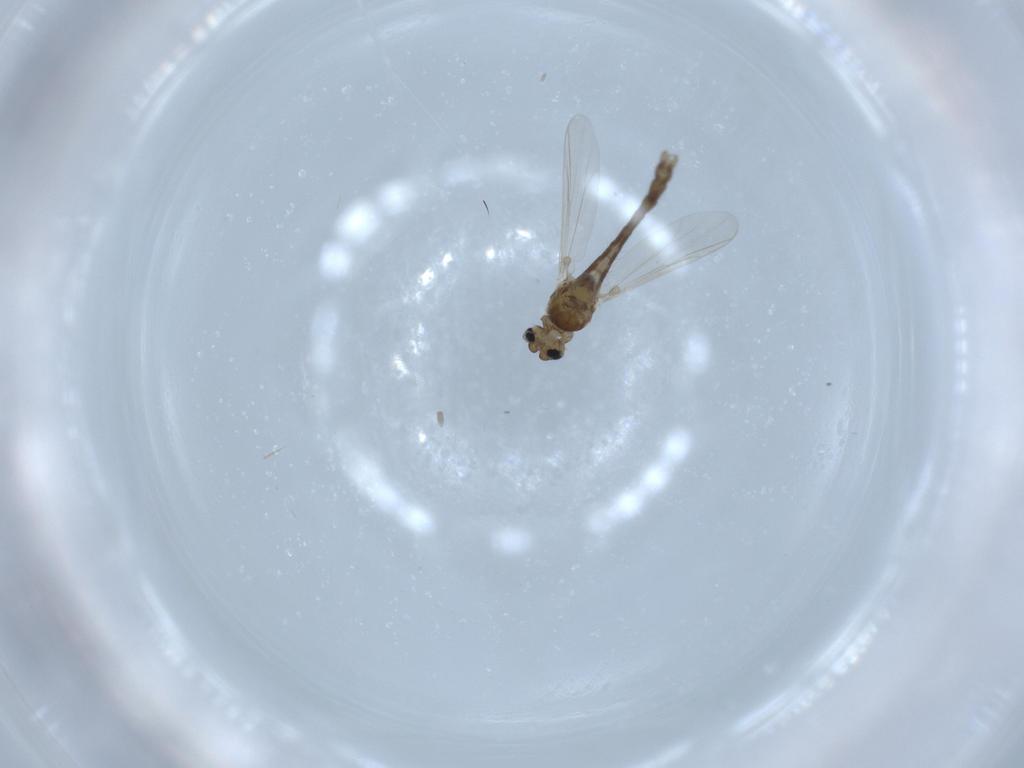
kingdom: Animalia
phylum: Arthropoda
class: Insecta
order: Diptera
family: Chironomidae
